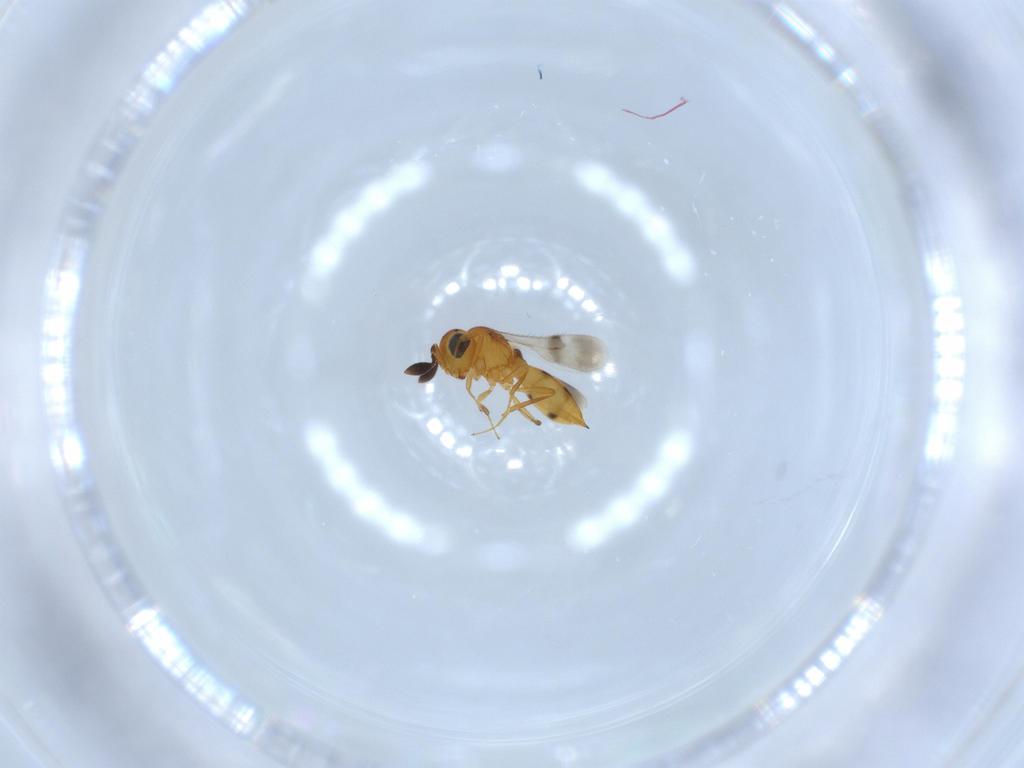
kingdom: Animalia
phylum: Arthropoda
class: Insecta
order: Hymenoptera
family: Scelionidae
